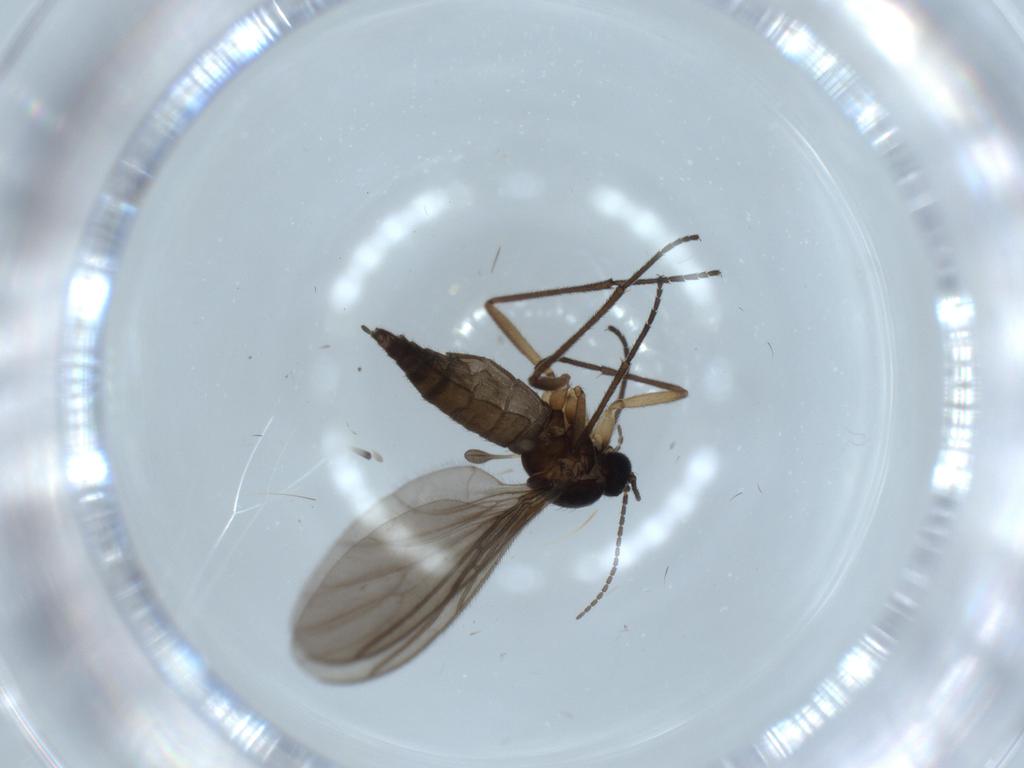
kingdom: Animalia
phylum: Arthropoda
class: Insecta
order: Diptera
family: Sciaridae
